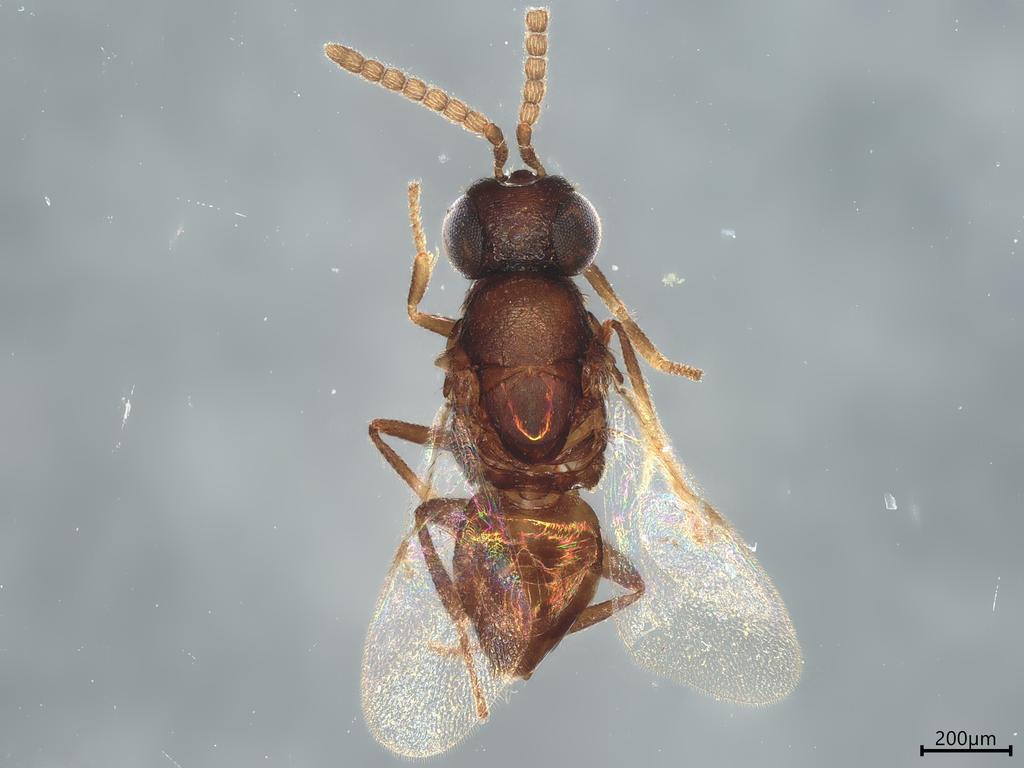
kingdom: Animalia
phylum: Arthropoda
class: Insecta
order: Hymenoptera
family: Encyrtidae
